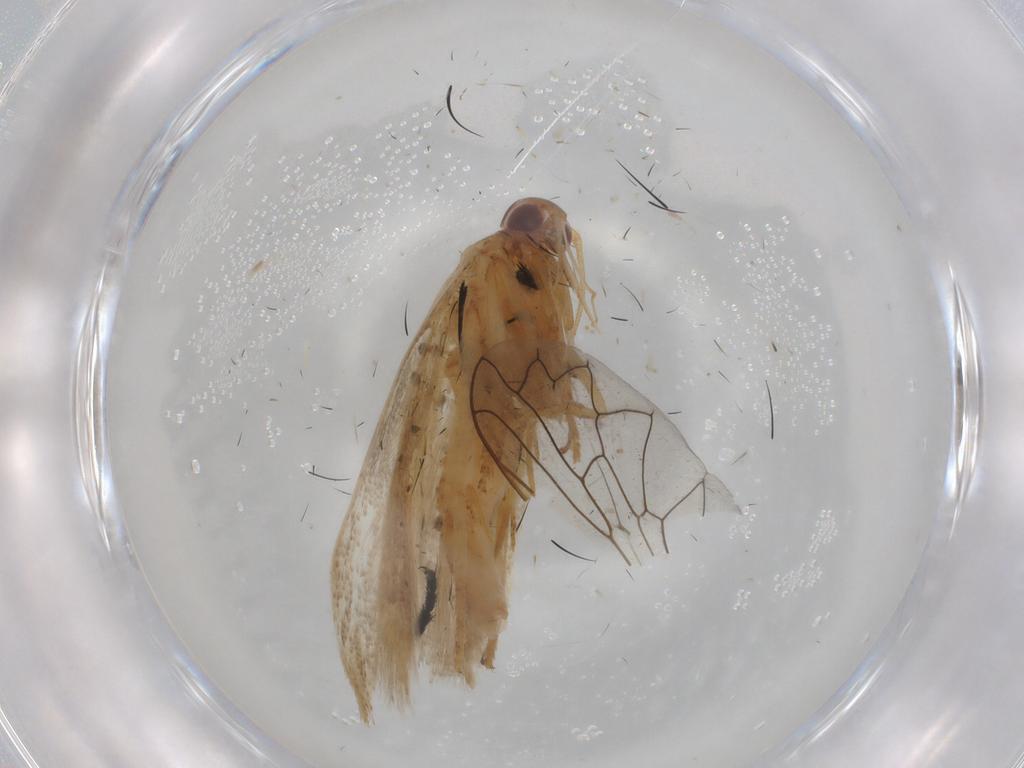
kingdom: Animalia
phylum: Arthropoda
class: Insecta
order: Lepidoptera
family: Gelechiidae
